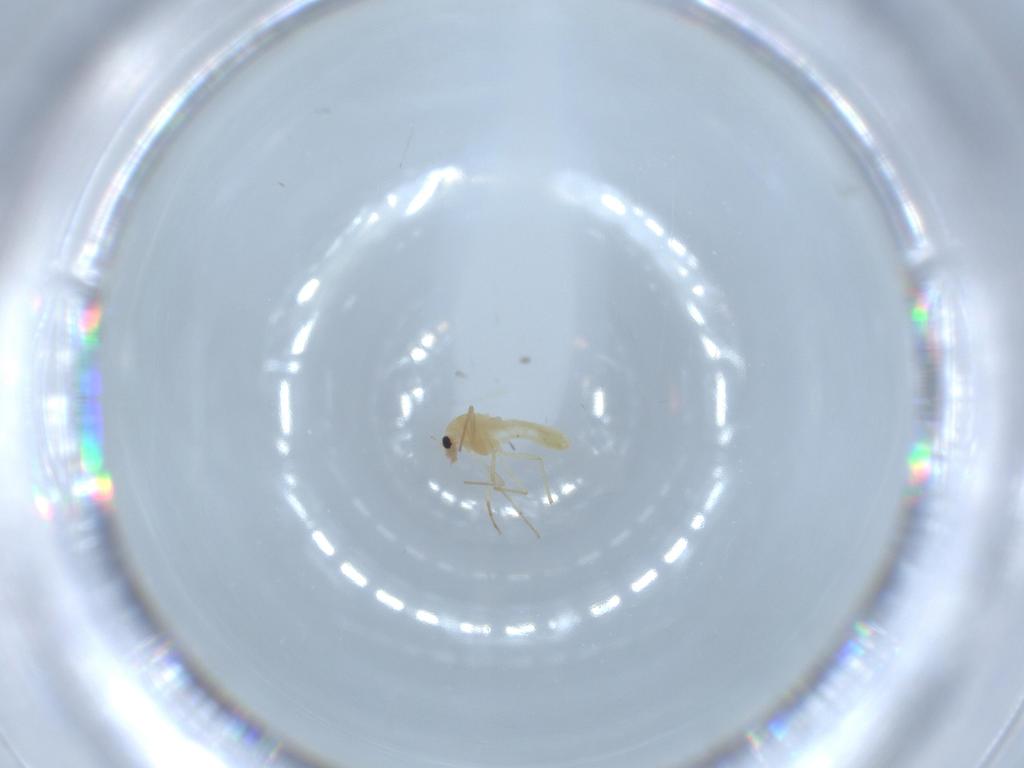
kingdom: Animalia
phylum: Arthropoda
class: Insecta
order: Diptera
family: Chironomidae
